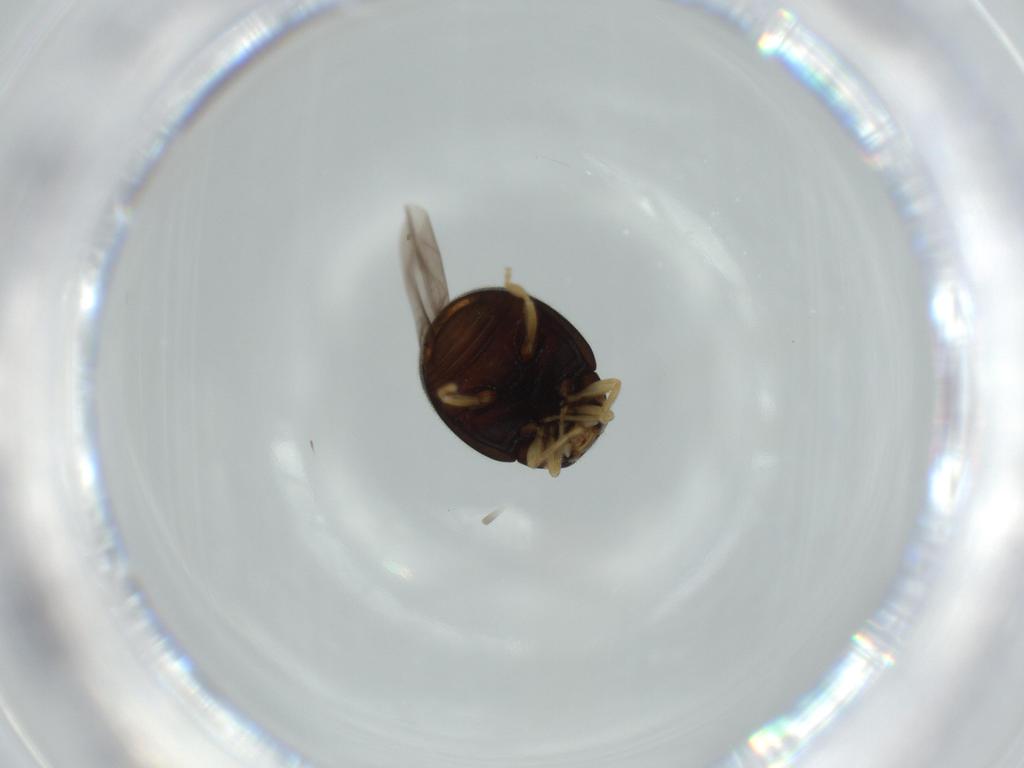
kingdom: Animalia
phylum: Arthropoda
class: Insecta
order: Coleoptera
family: Coccinellidae
